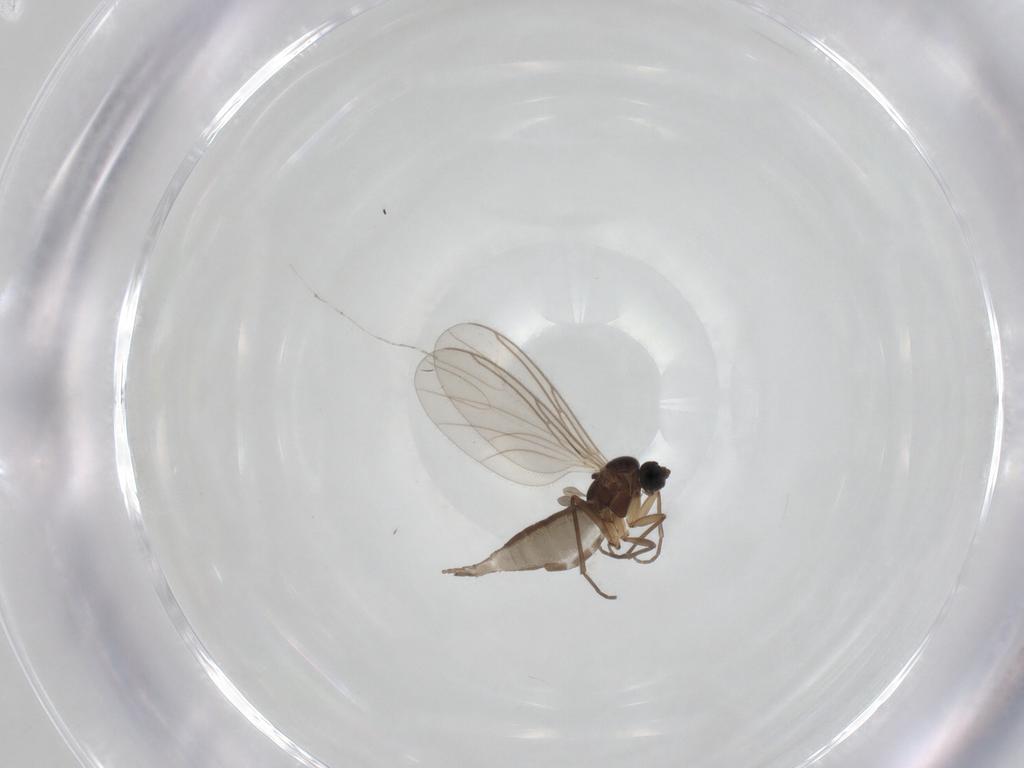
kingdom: Animalia
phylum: Arthropoda
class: Insecta
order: Diptera
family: Sciaridae
